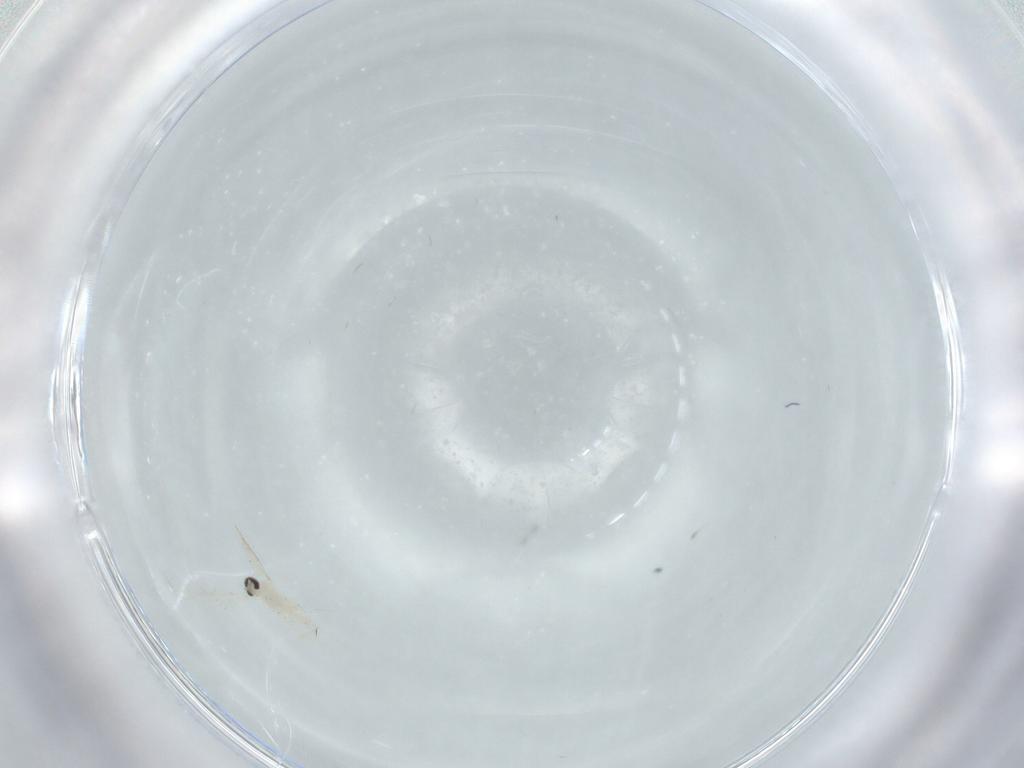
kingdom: Animalia
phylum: Arthropoda
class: Insecta
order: Diptera
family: Cecidomyiidae
